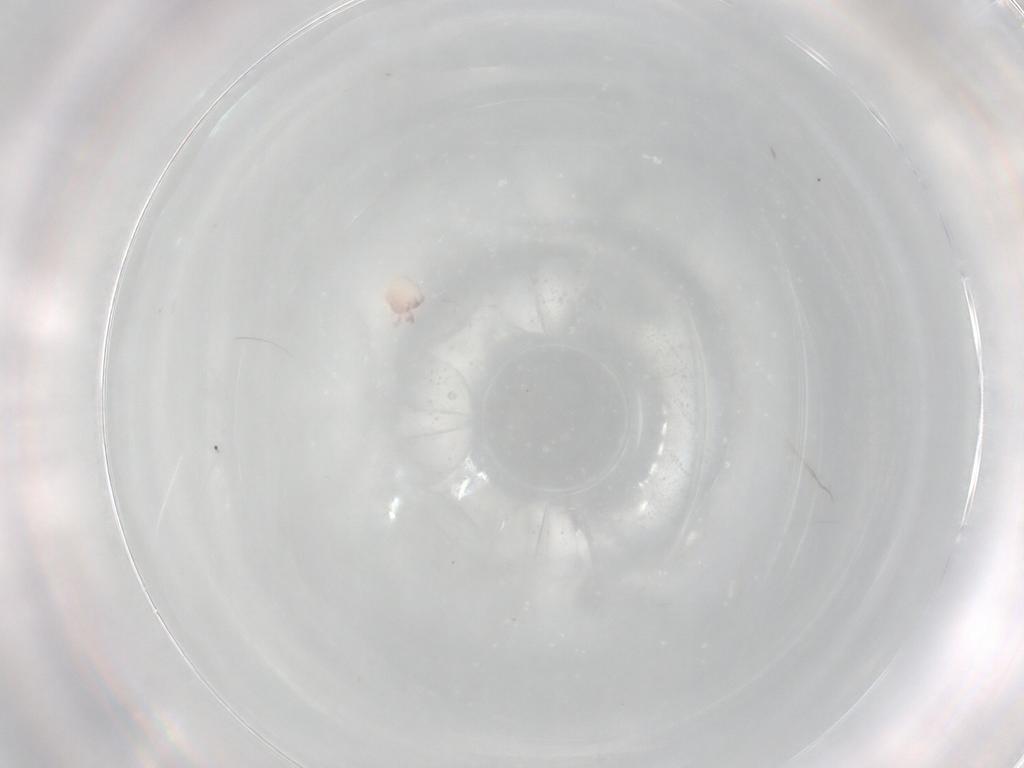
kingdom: Animalia
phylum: Arthropoda
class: Arachnida
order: Trombidiformes
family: Sperchontidae
